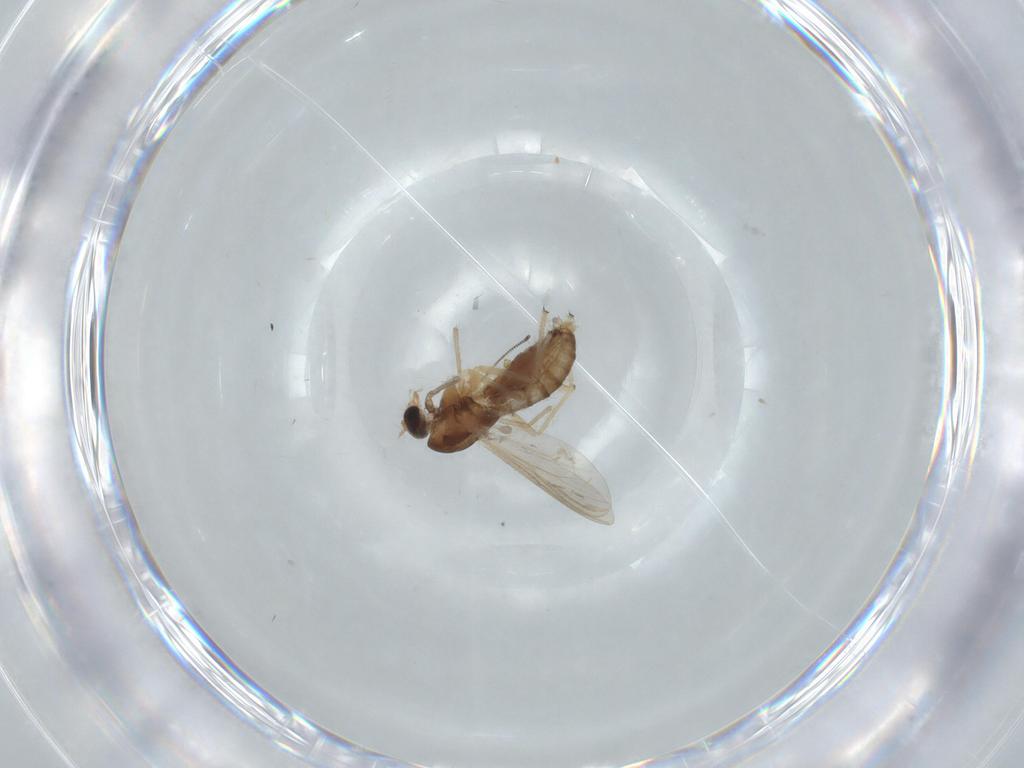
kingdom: Animalia
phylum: Arthropoda
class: Insecta
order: Diptera
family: Chironomidae
